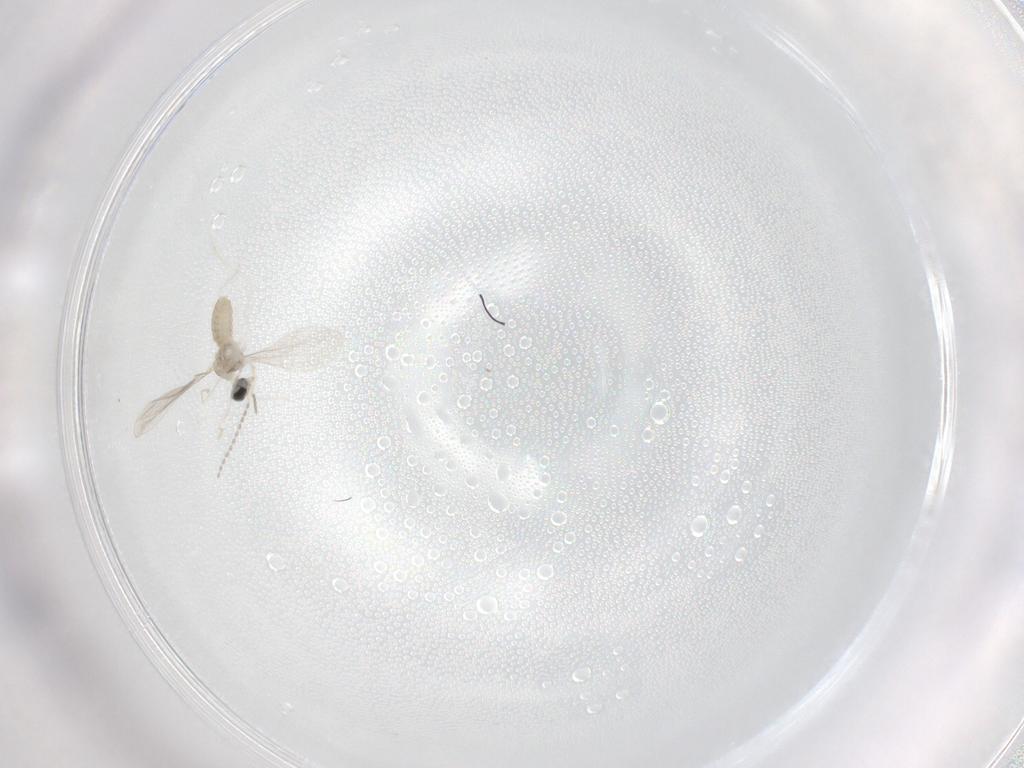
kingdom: Animalia
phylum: Arthropoda
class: Insecta
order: Diptera
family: Cecidomyiidae
